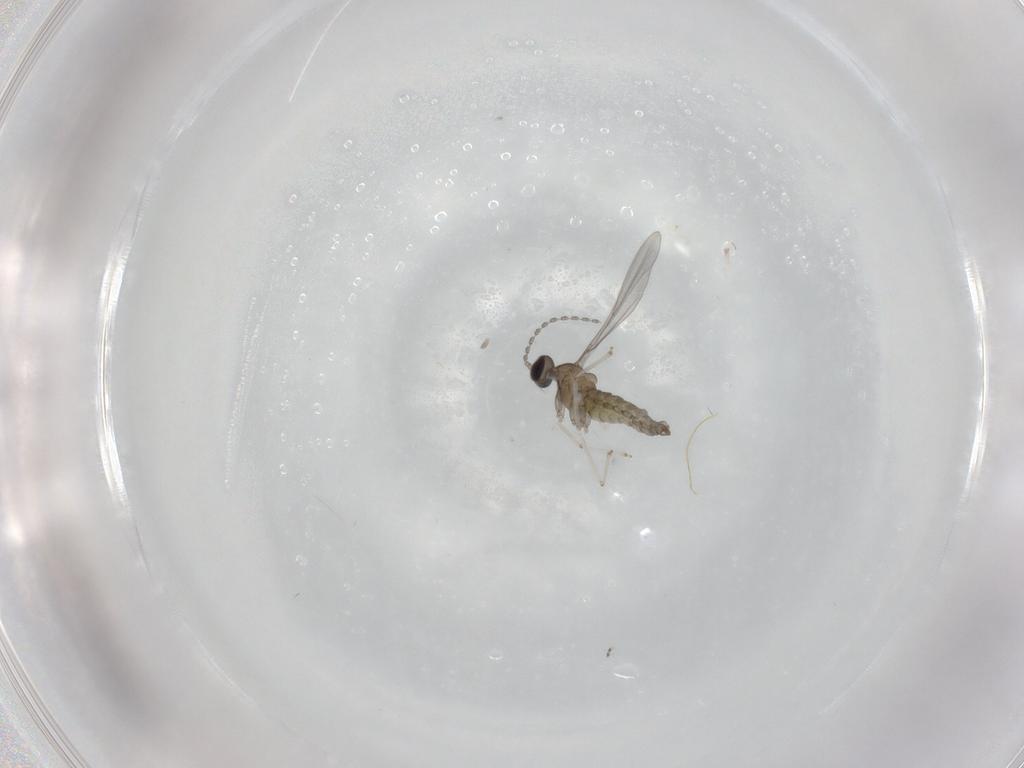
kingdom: Animalia
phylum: Arthropoda
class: Insecta
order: Diptera
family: Cecidomyiidae
